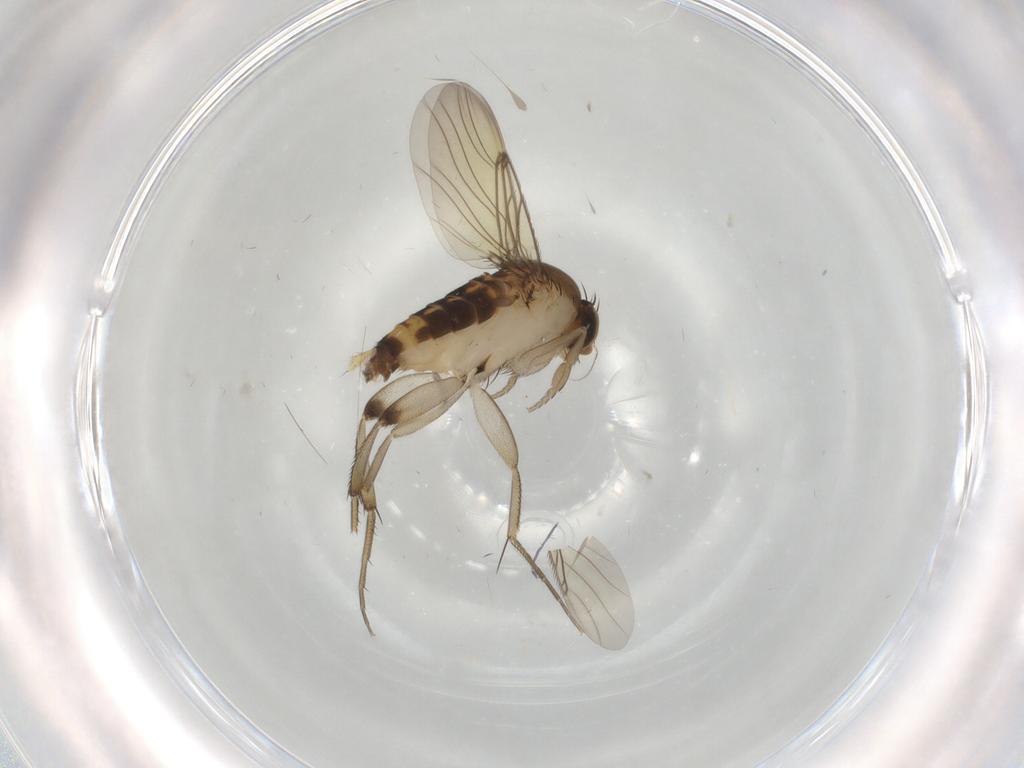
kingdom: Animalia
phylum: Arthropoda
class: Insecta
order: Diptera
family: Phoridae
